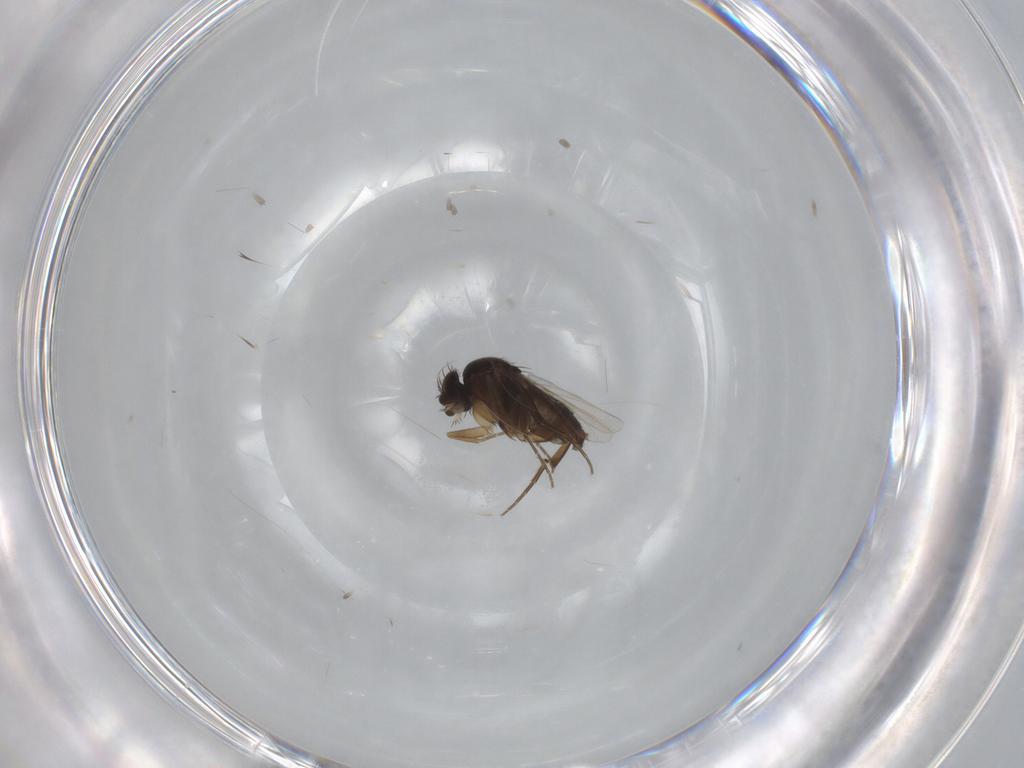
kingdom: Animalia
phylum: Arthropoda
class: Insecta
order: Diptera
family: Phoridae
